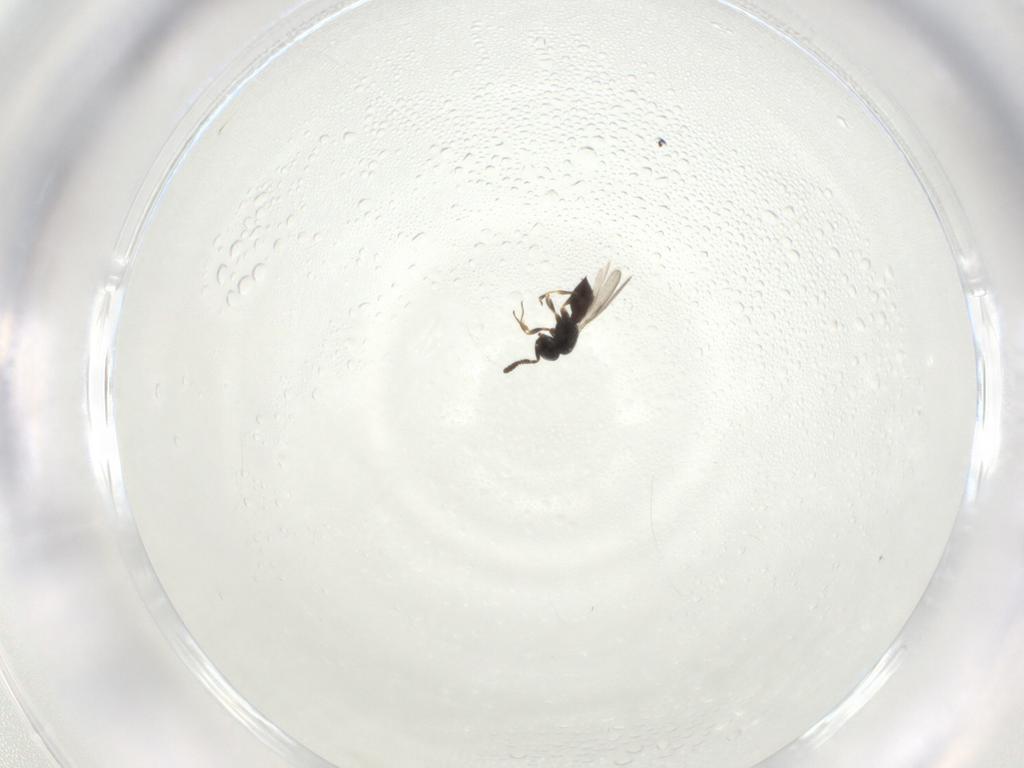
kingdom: Animalia
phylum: Arthropoda
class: Insecta
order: Hymenoptera
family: Scelionidae
